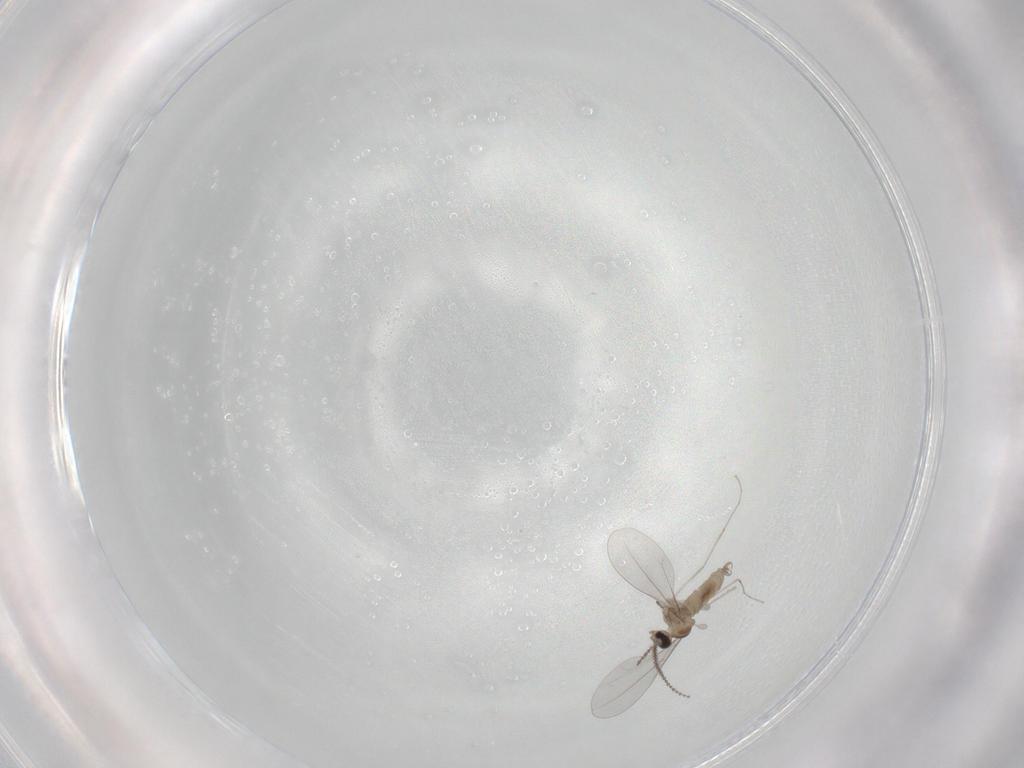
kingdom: Animalia
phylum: Arthropoda
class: Insecta
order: Diptera
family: Cecidomyiidae
